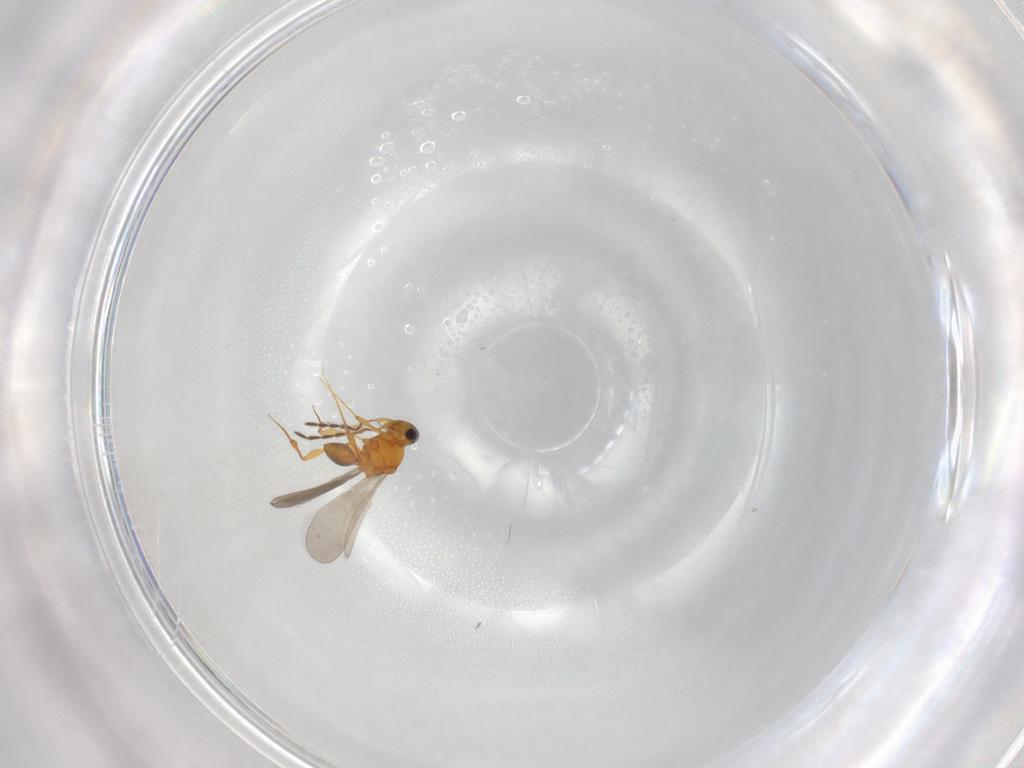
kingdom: Animalia
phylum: Arthropoda
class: Insecta
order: Hymenoptera
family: Platygastridae
